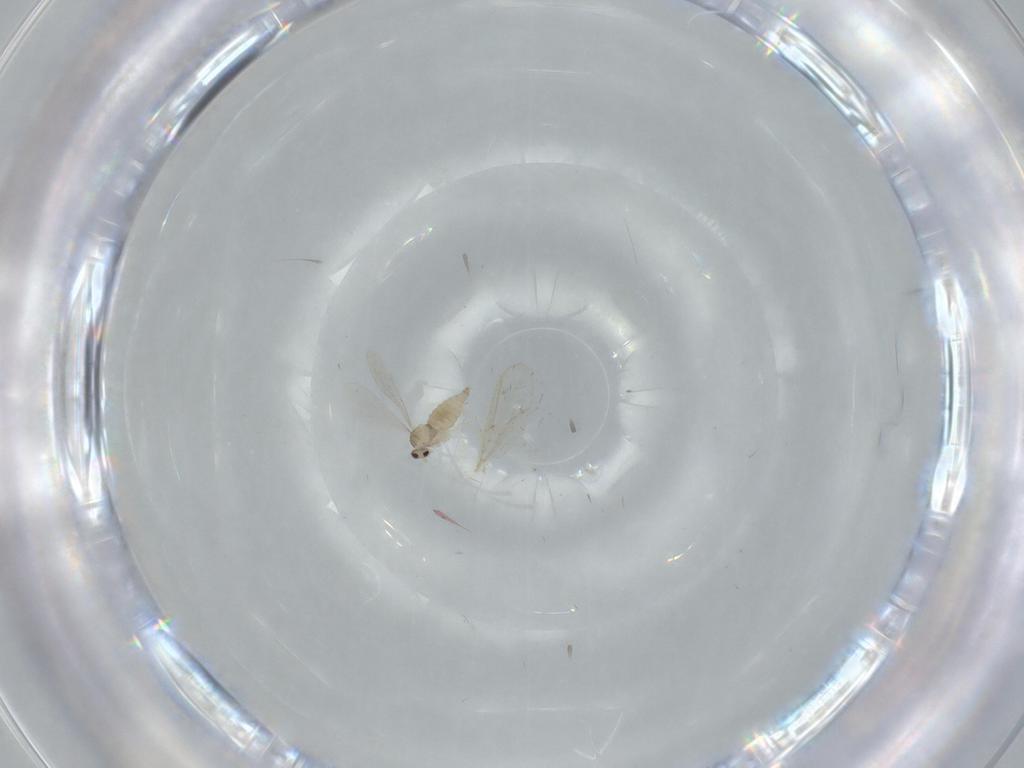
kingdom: Animalia
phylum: Arthropoda
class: Insecta
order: Diptera
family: Cecidomyiidae
